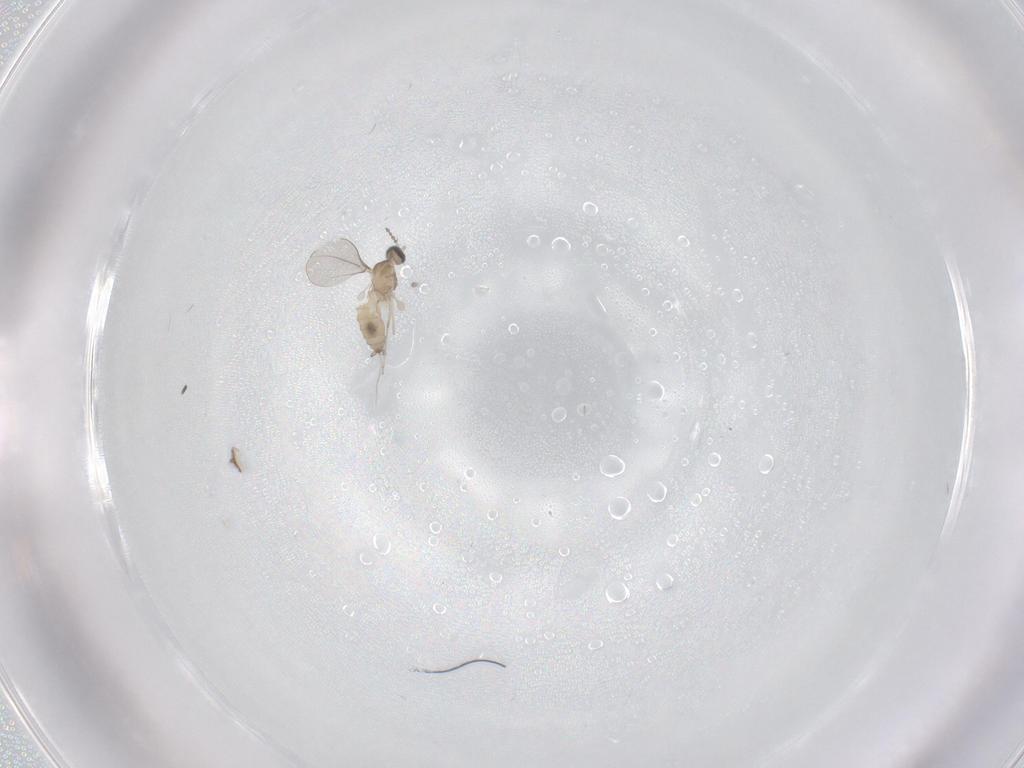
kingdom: Animalia
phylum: Arthropoda
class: Insecta
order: Diptera
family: Cecidomyiidae
